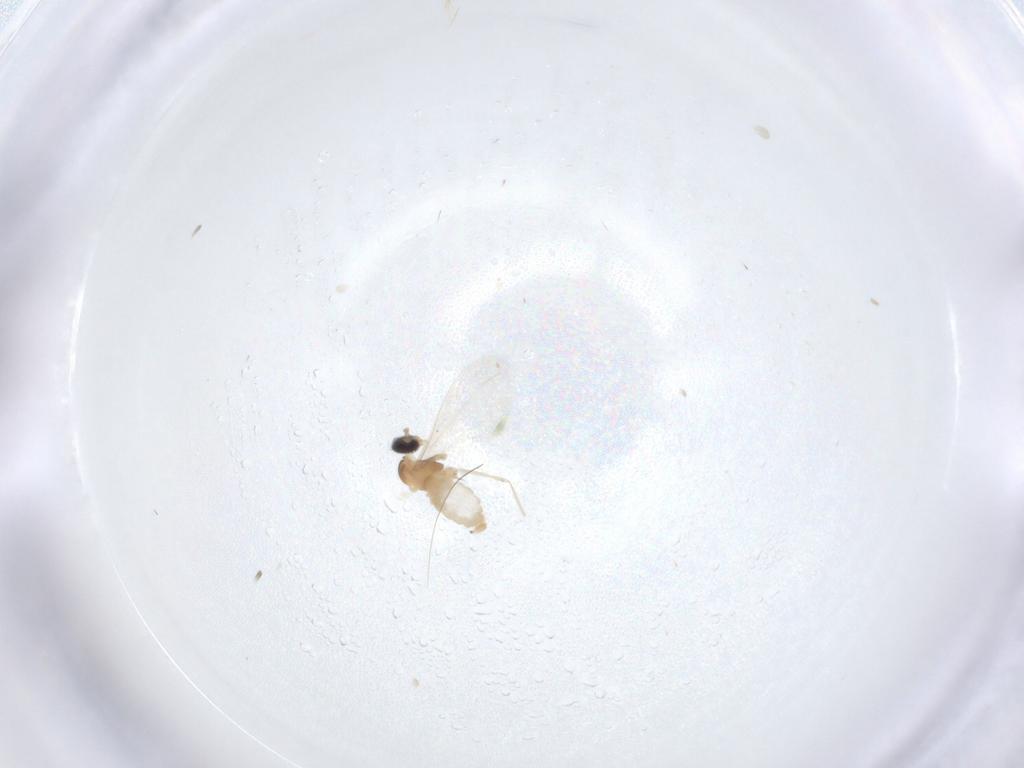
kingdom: Animalia
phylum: Arthropoda
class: Insecta
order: Diptera
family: Cecidomyiidae
